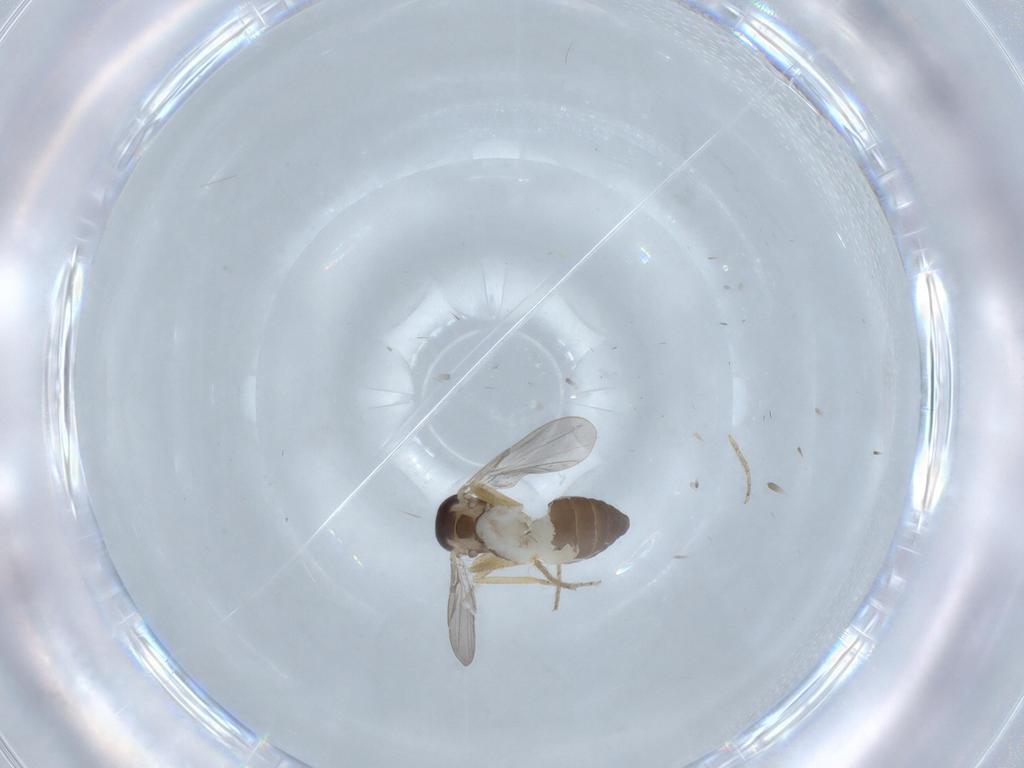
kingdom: Animalia
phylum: Arthropoda
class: Insecta
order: Diptera
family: Ceratopogonidae
